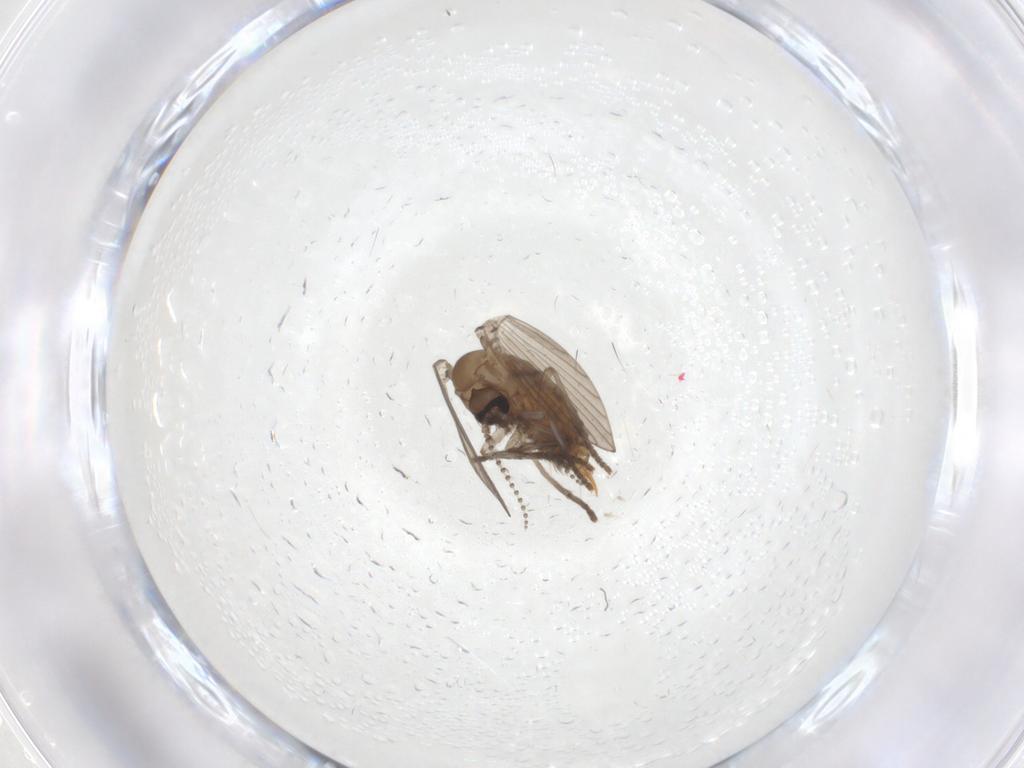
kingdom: Animalia
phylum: Arthropoda
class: Insecta
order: Diptera
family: Psychodidae
